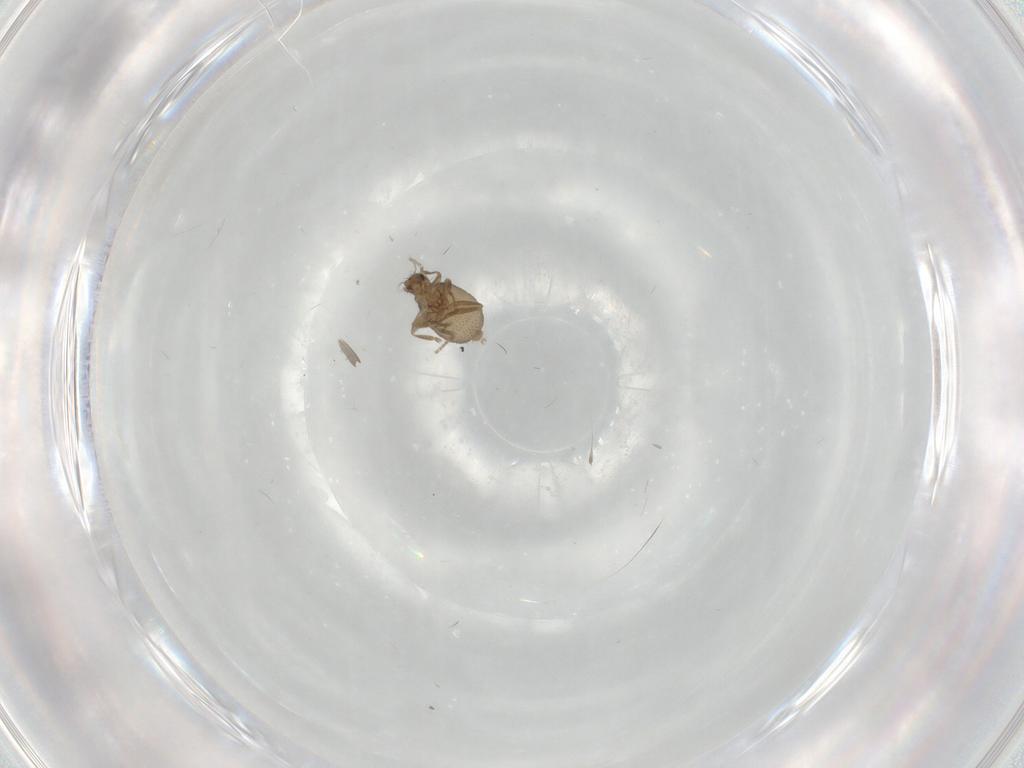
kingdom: Animalia
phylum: Arthropoda
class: Insecta
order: Diptera
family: Phoridae
